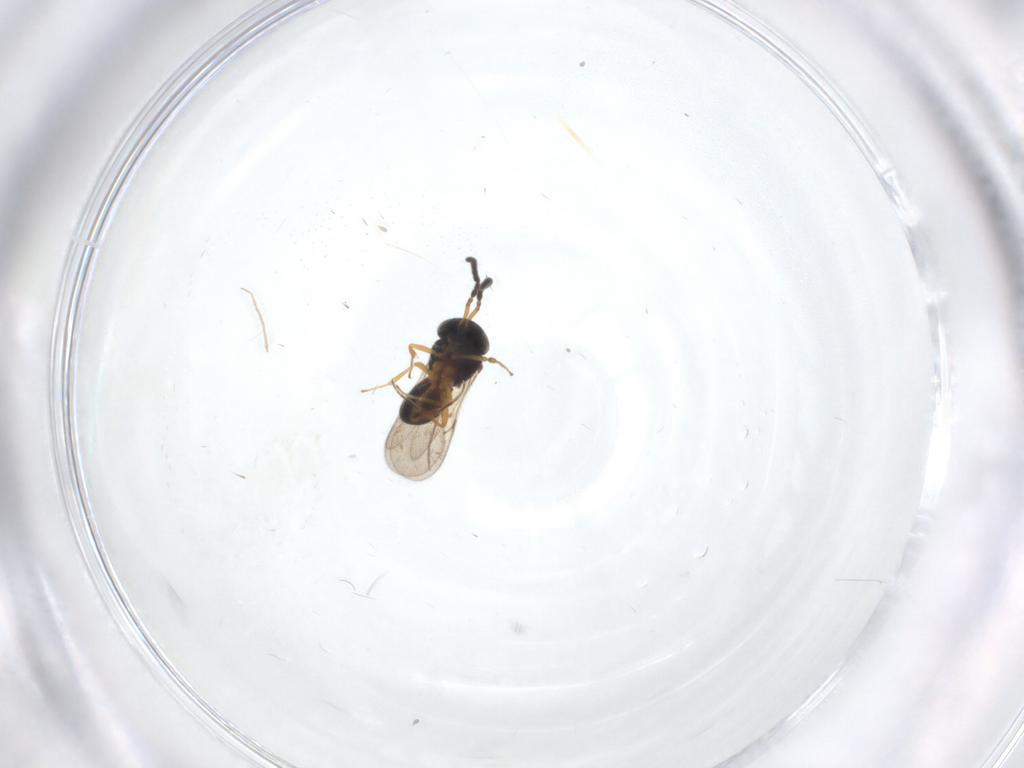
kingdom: Animalia
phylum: Arthropoda
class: Insecta
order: Hymenoptera
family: Scelionidae
